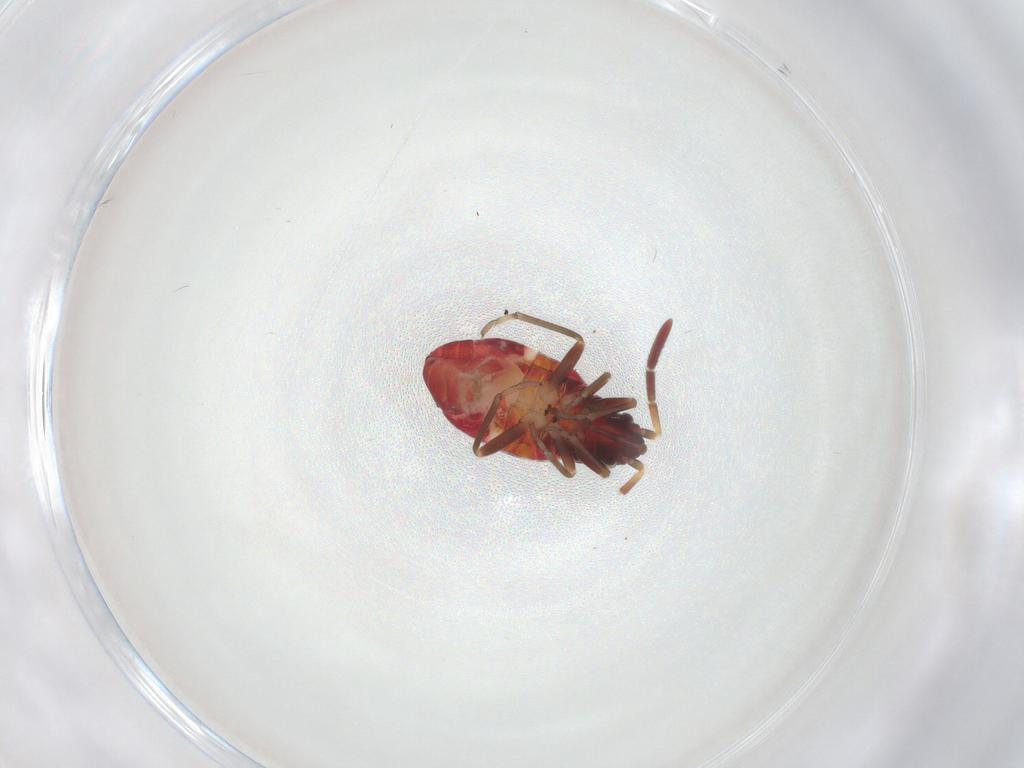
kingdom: Animalia
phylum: Arthropoda
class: Insecta
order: Hemiptera
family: Rhyparochromidae
